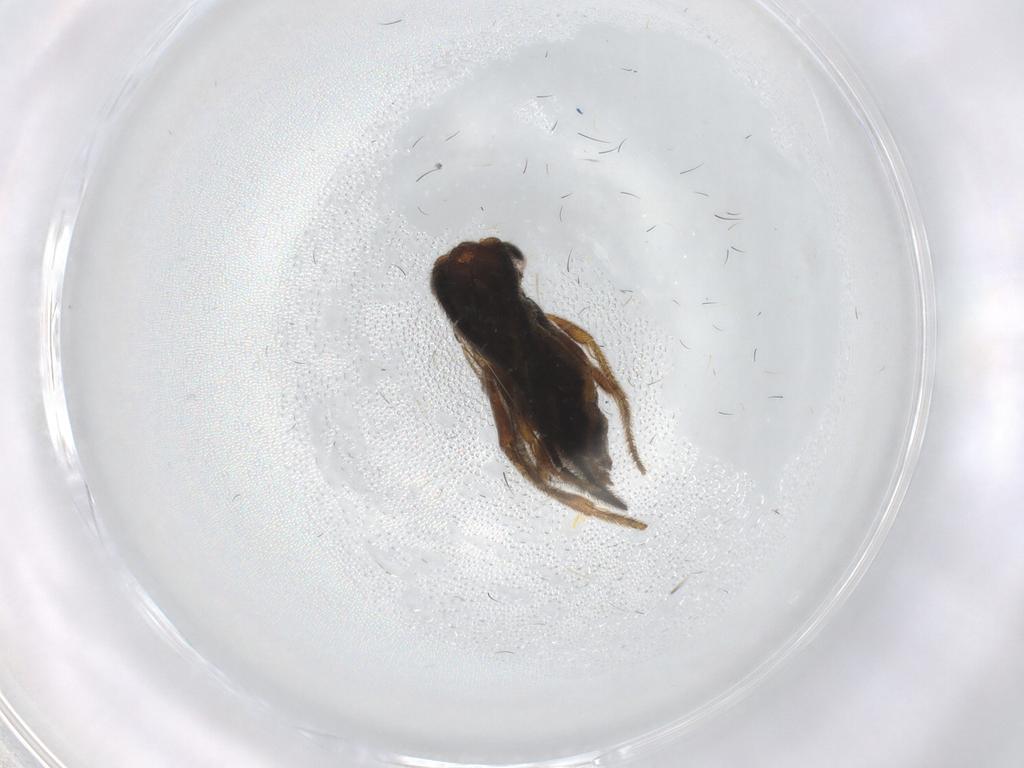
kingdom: Animalia
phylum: Arthropoda
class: Insecta
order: Hymenoptera
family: Dryinidae
